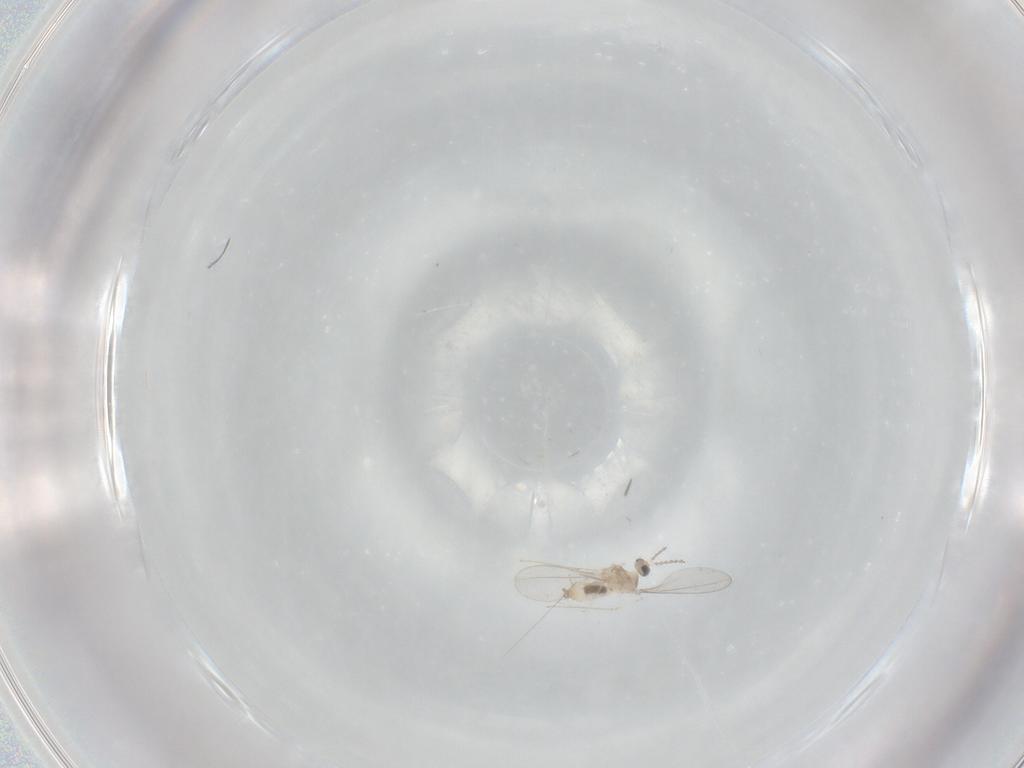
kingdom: Animalia
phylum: Arthropoda
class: Insecta
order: Diptera
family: Cecidomyiidae
